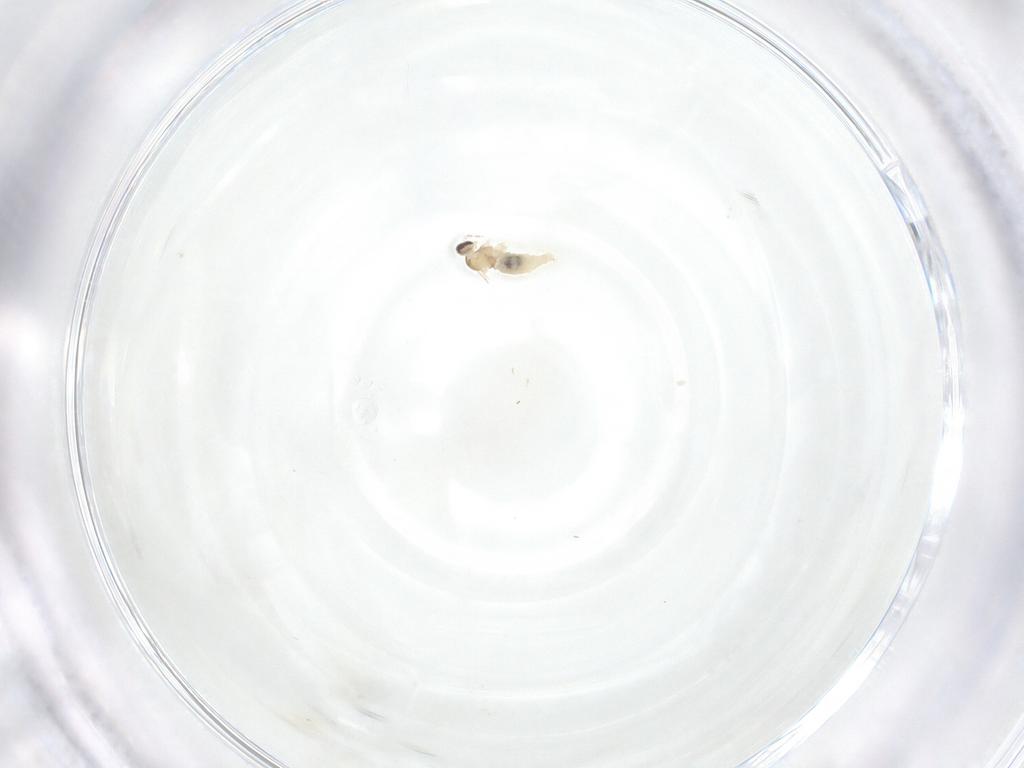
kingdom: Animalia
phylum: Arthropoda
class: Insecta
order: Diptera
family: Cecidomyiidae
